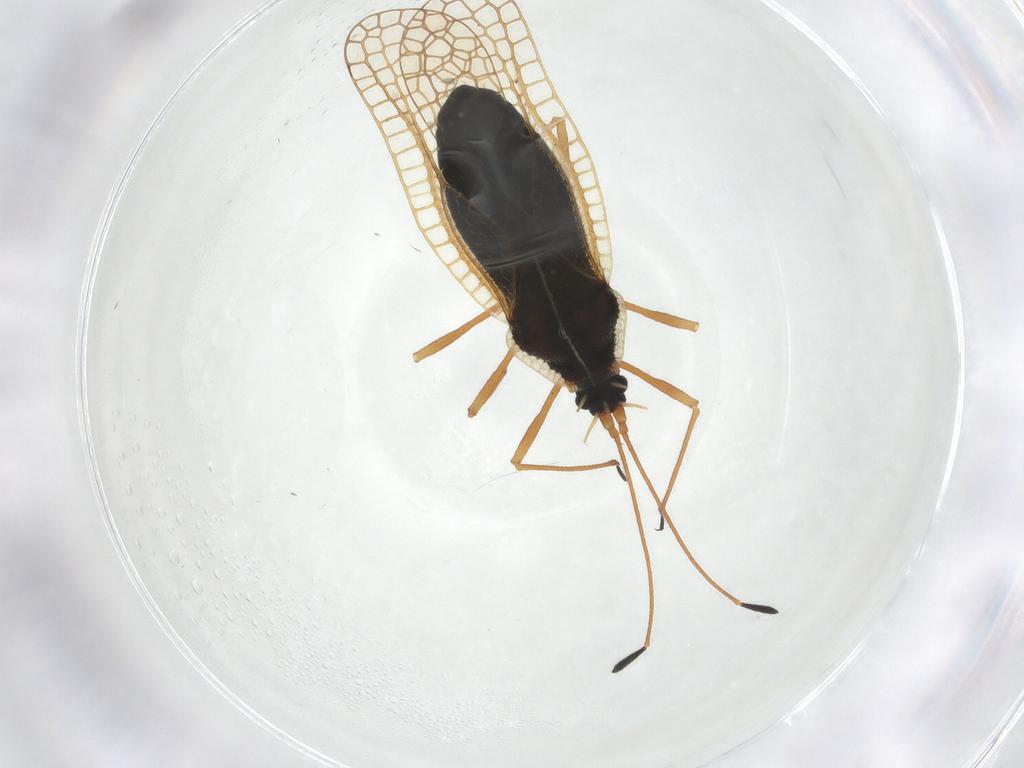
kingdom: Animalia
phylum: Arthropoda
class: Insecta
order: Hemiptera
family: Tingidae
